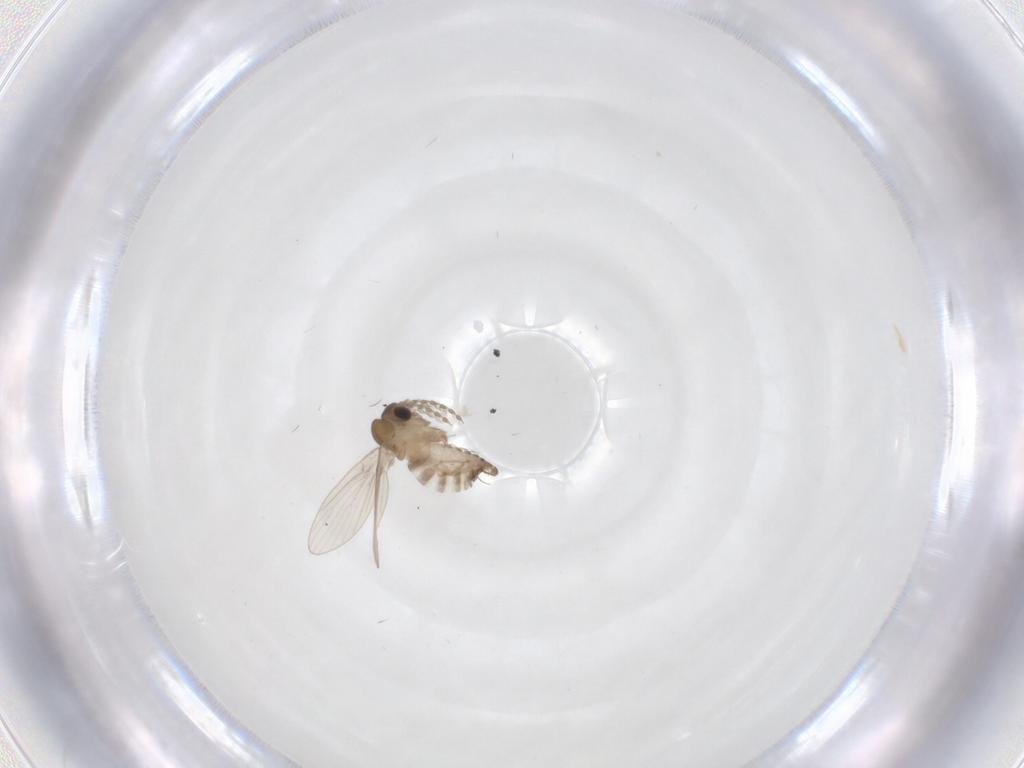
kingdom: Animalia
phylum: Arthropoda
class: Insecta
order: Diptera
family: Phoridae
